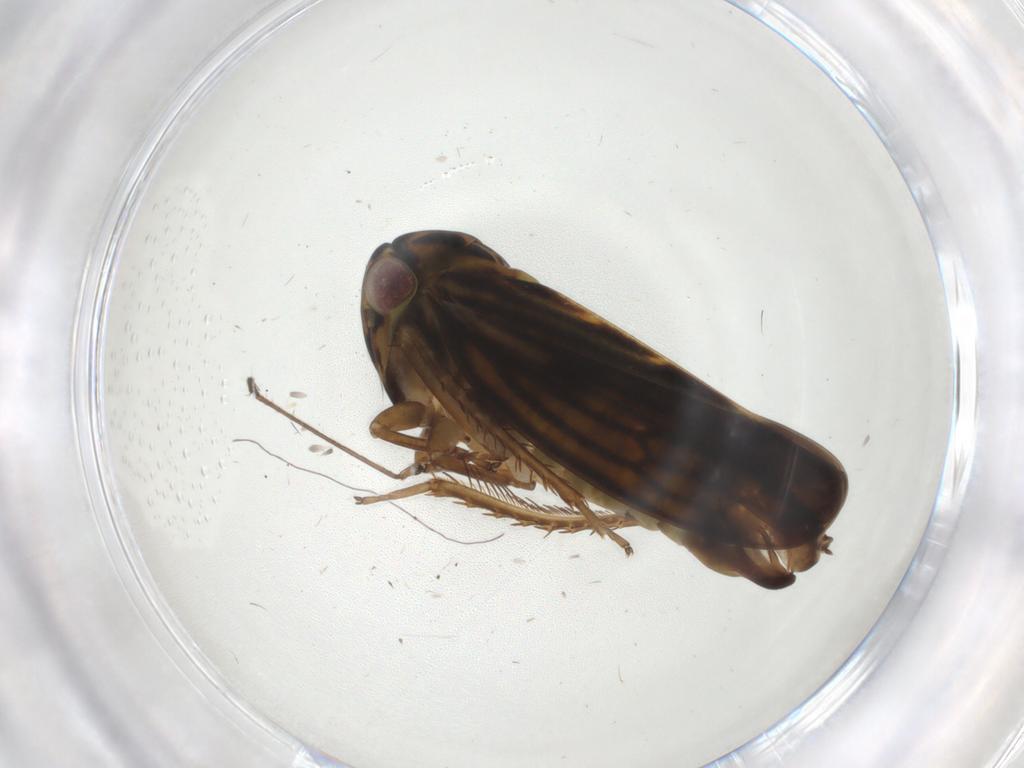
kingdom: Animalia
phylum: Arthropoda
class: Insecta
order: Hemiptera
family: Cicadellidae
